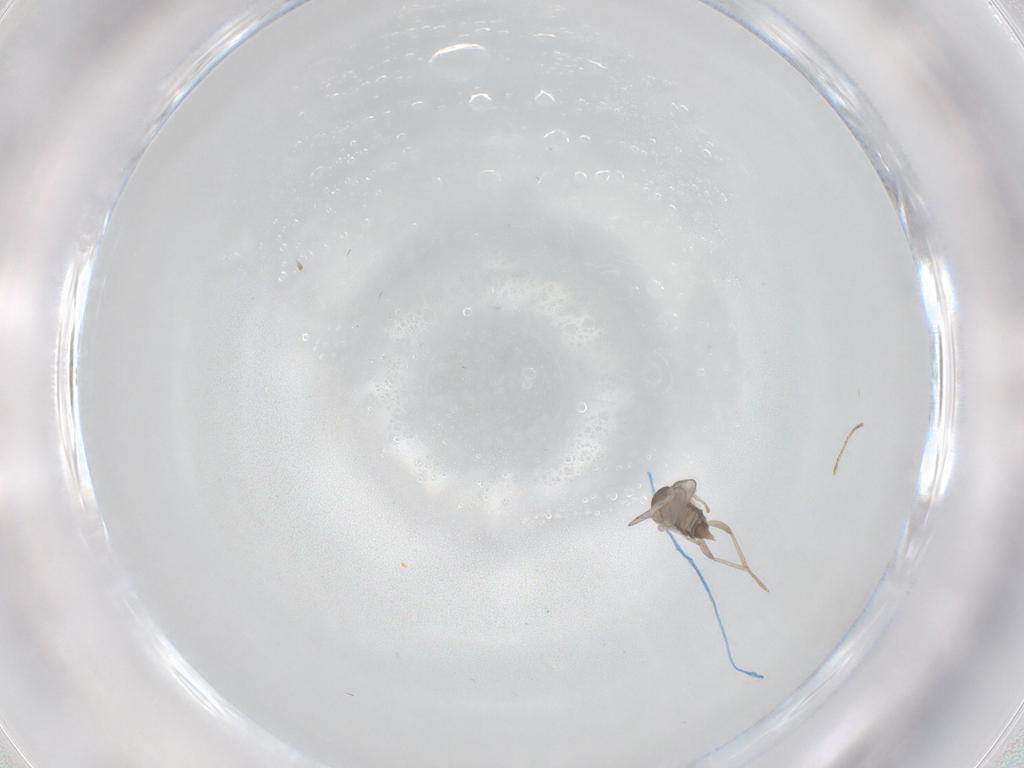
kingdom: Animalia
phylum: Arthropoda
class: Insecta
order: Diptera
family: Cecidomyiidae
